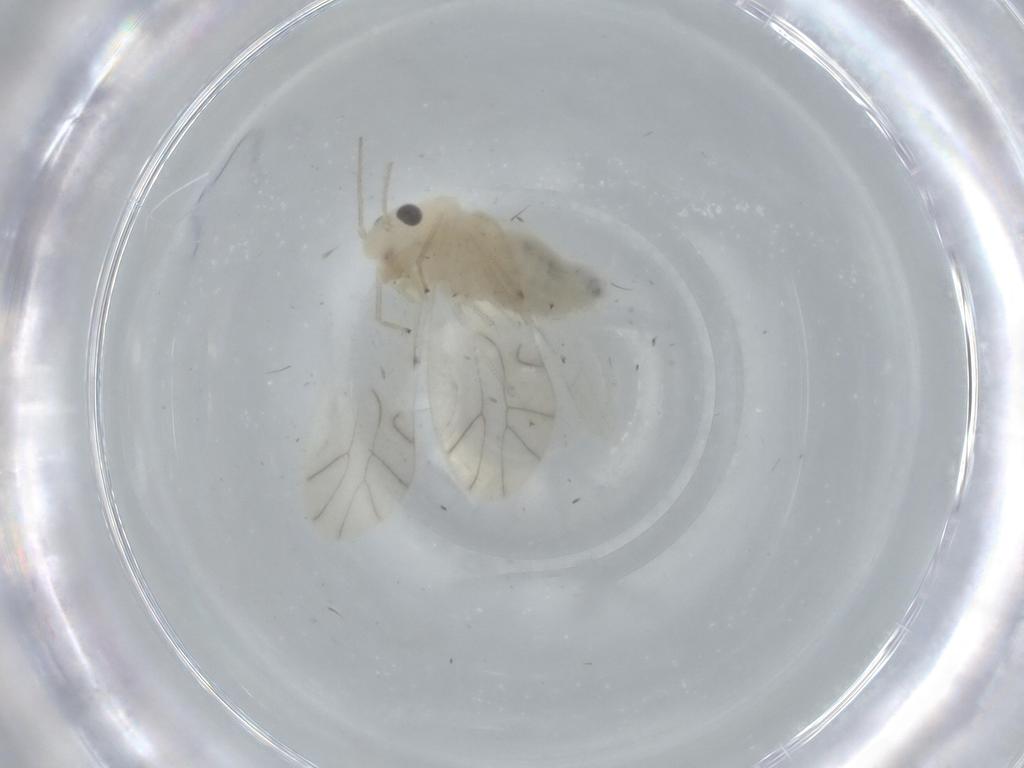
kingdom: Animalia
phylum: Arthropoda
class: Insecta
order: Psocodea
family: Caeciliusidae
